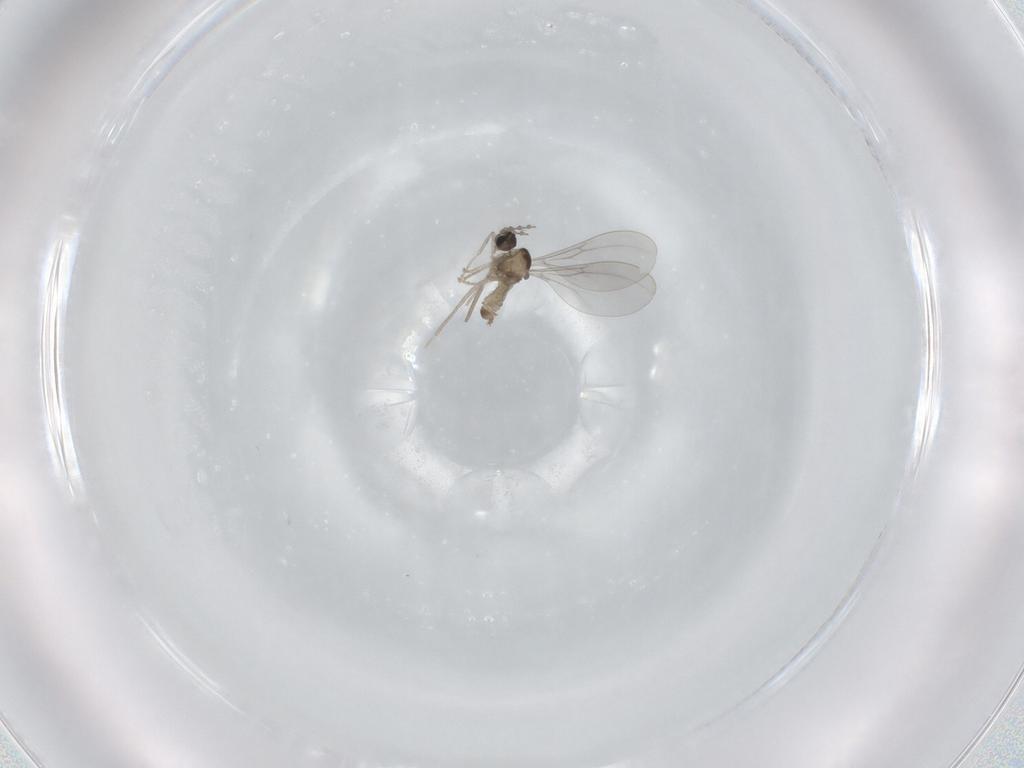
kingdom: Animalia
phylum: Arthropoda
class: Insecta
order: Diptera
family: Cecidomyiidae
